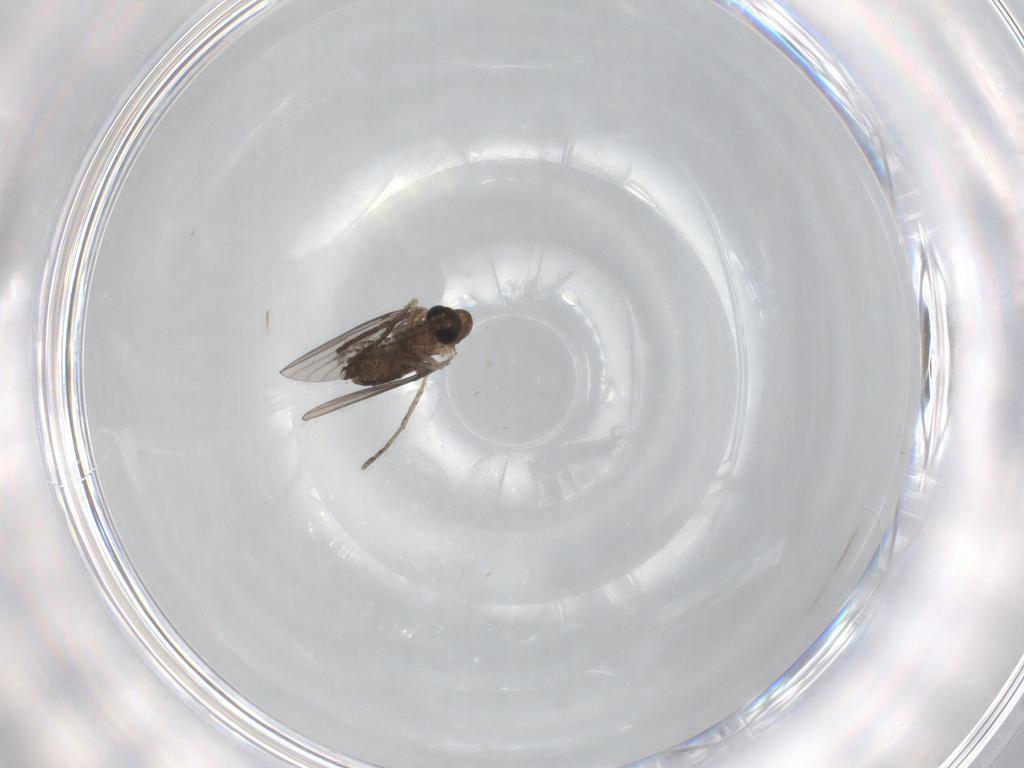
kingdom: Animalia
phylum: Arthropoda
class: Insecta
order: Diptera
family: Psychodidae
